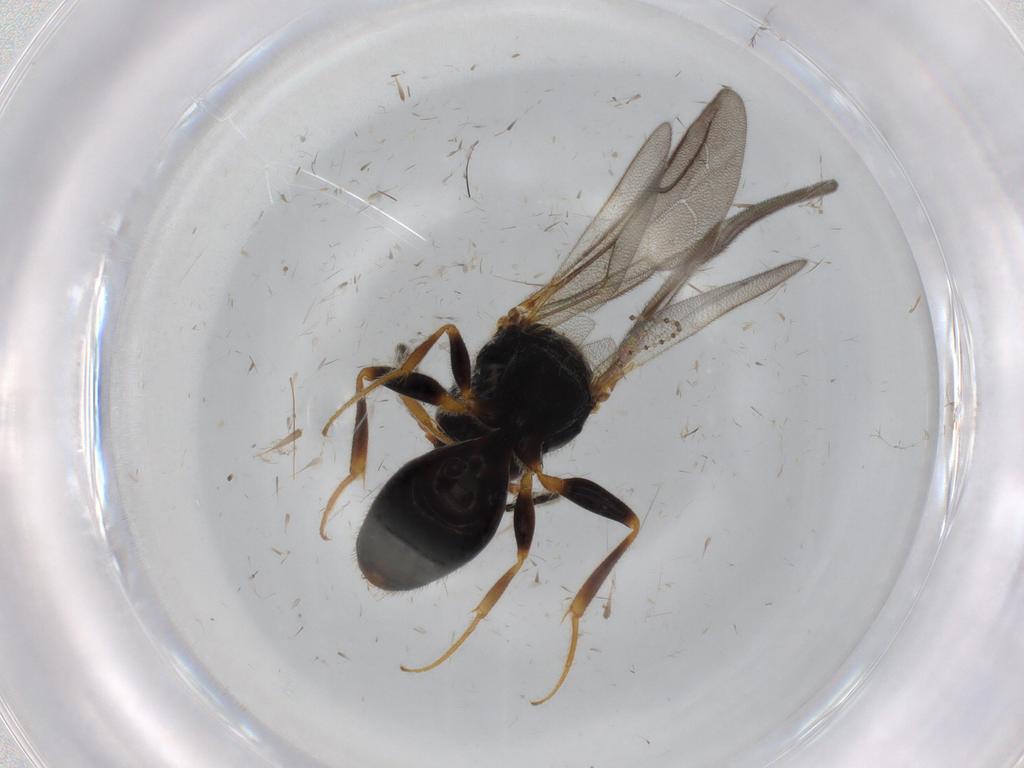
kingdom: Animalia
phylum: Arthropoda
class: Insecta
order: Hymenoptera
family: Bethylidae
